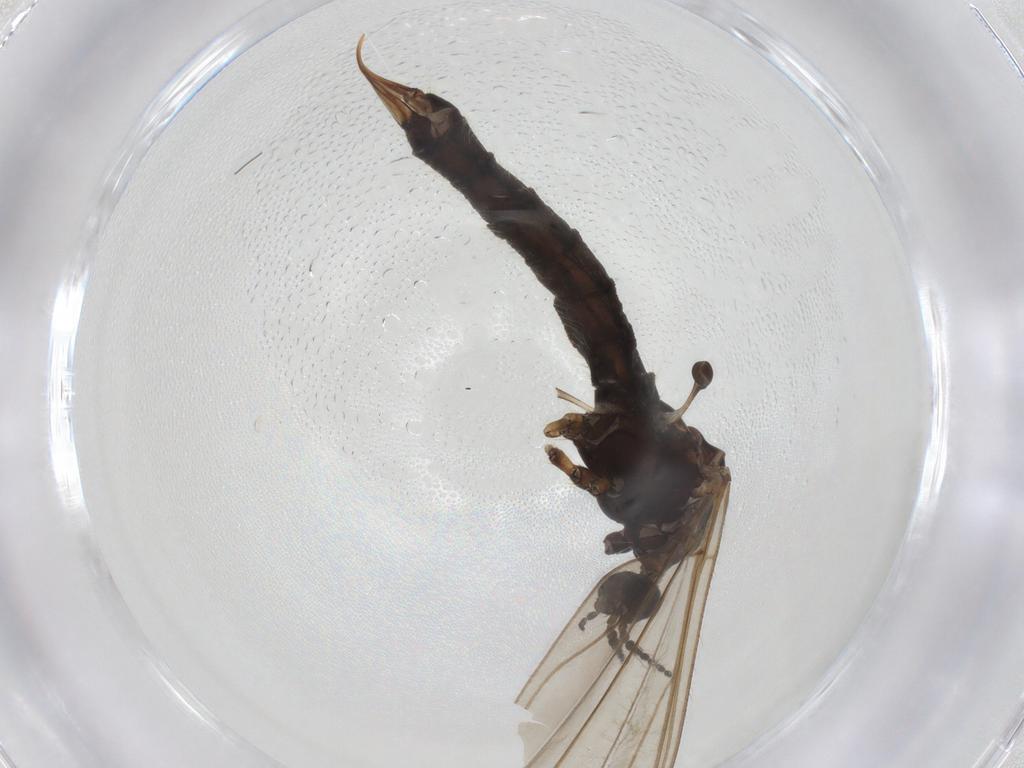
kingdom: Animalia
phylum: Arthropoda
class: Insecta
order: Diptera
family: Limoniidae
